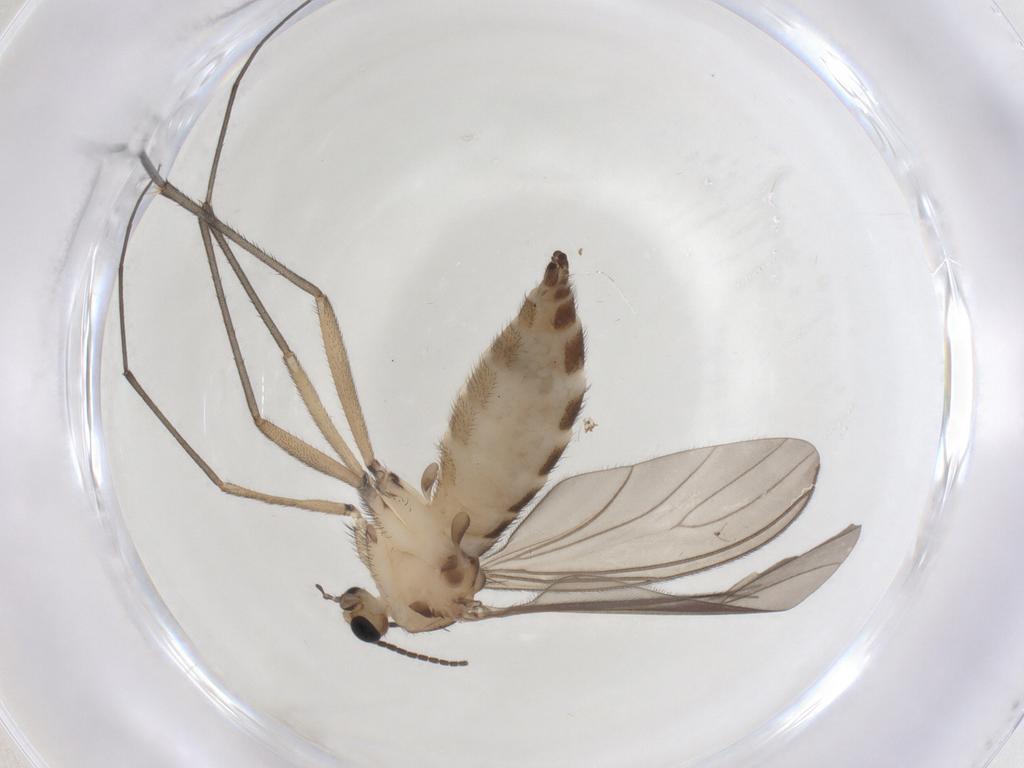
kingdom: Animalia
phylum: Arthropoda
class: Insecta
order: Diptera
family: Sciaridae
